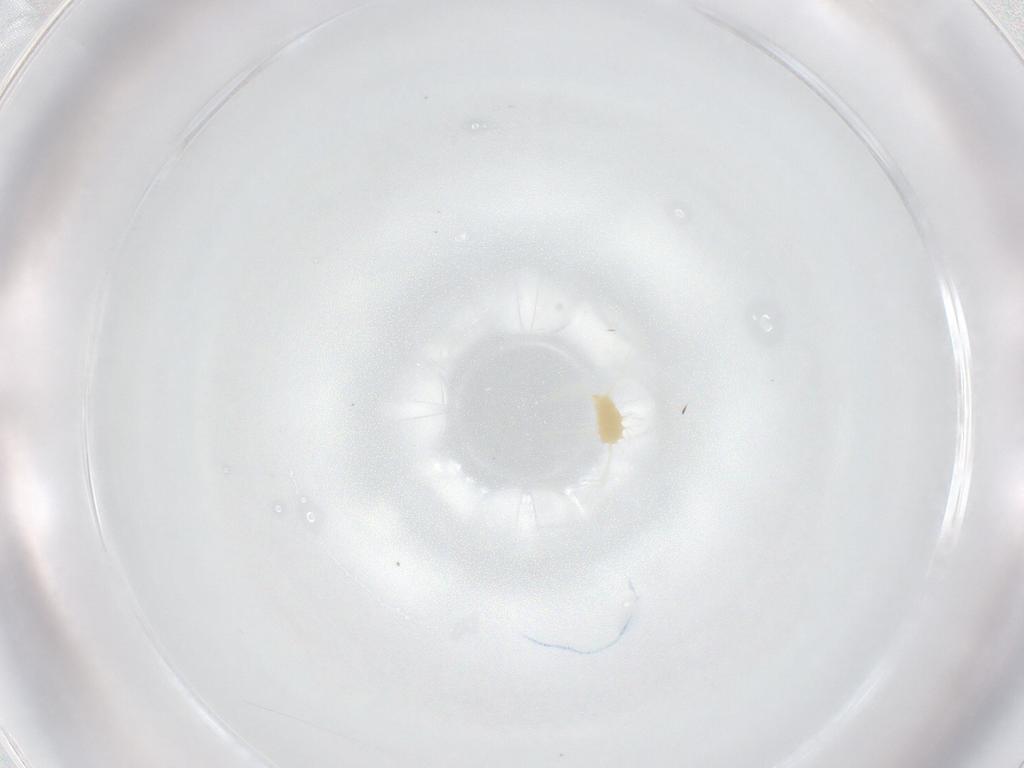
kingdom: Animalia
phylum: Arthropoda
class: Arachnida
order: Trombidiformes
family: Tetranychidae
